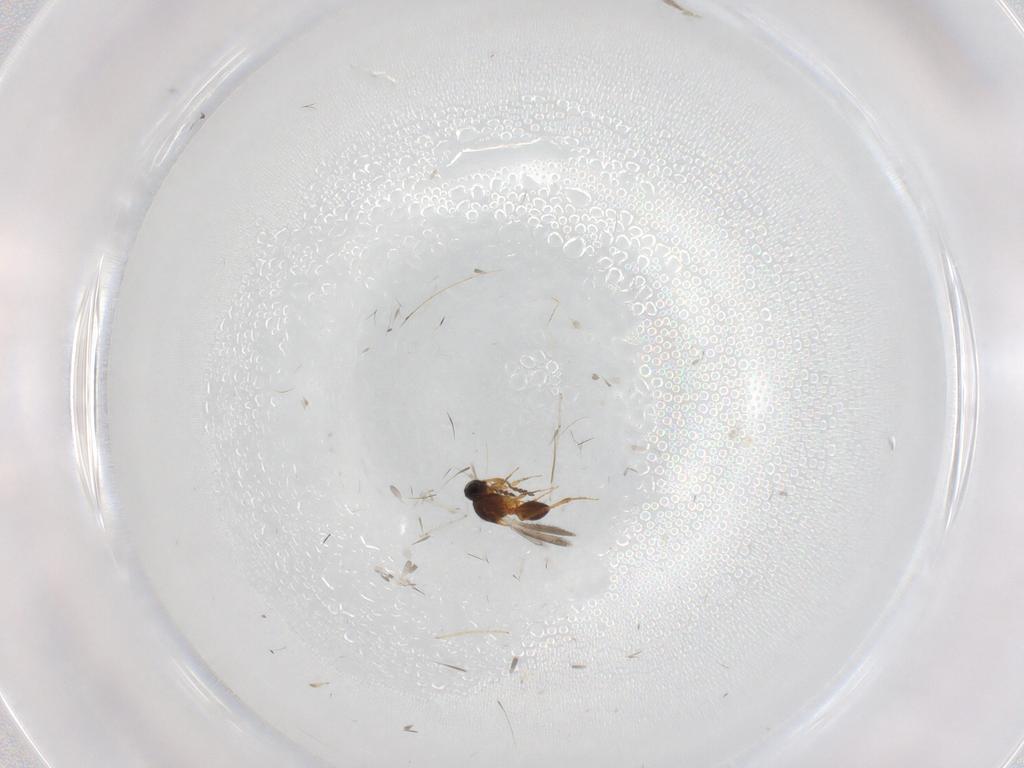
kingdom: Animalia
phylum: Arthropoda
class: Insecta
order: Hymenoptera
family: Platygastridae
